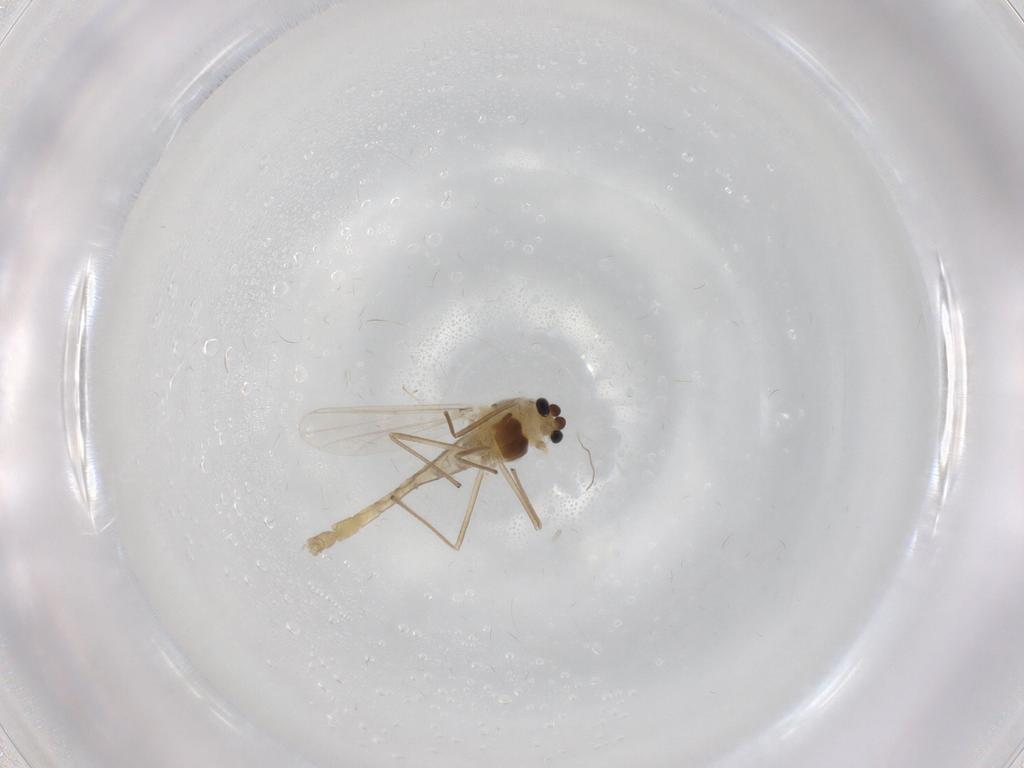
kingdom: Animalia
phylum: Arthropoda
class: Insecta
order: Diptera
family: Chironomidae
